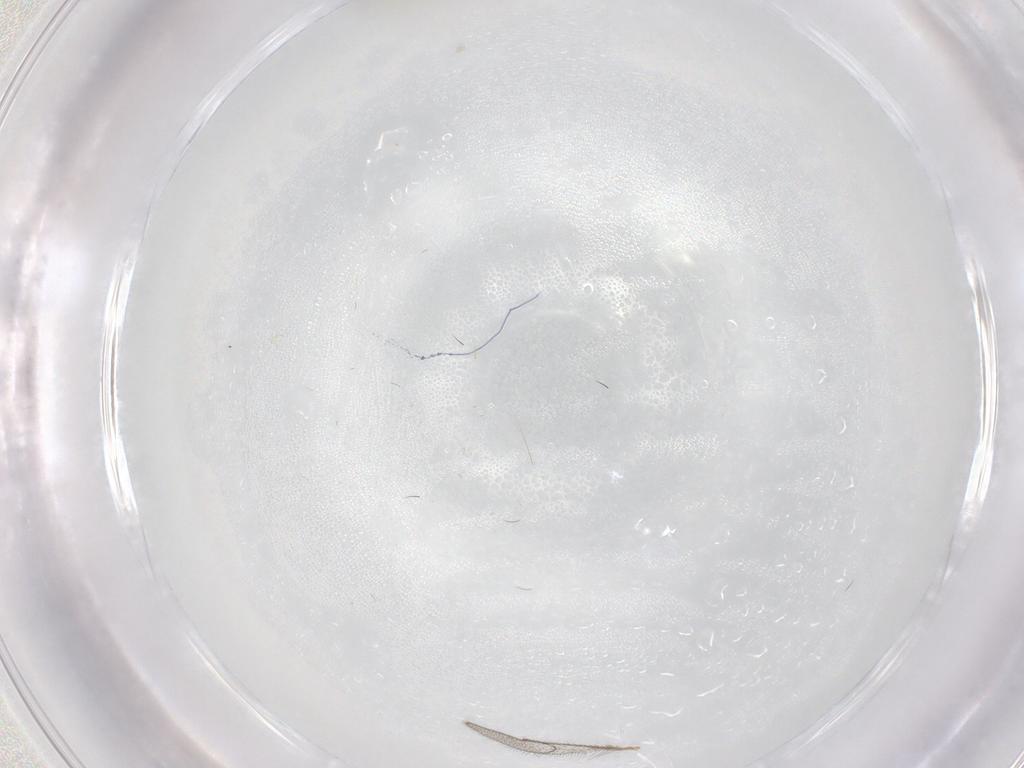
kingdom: Animalia
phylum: Arthropoda
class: Insecta
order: Diptera
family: Cecidomyiidae
